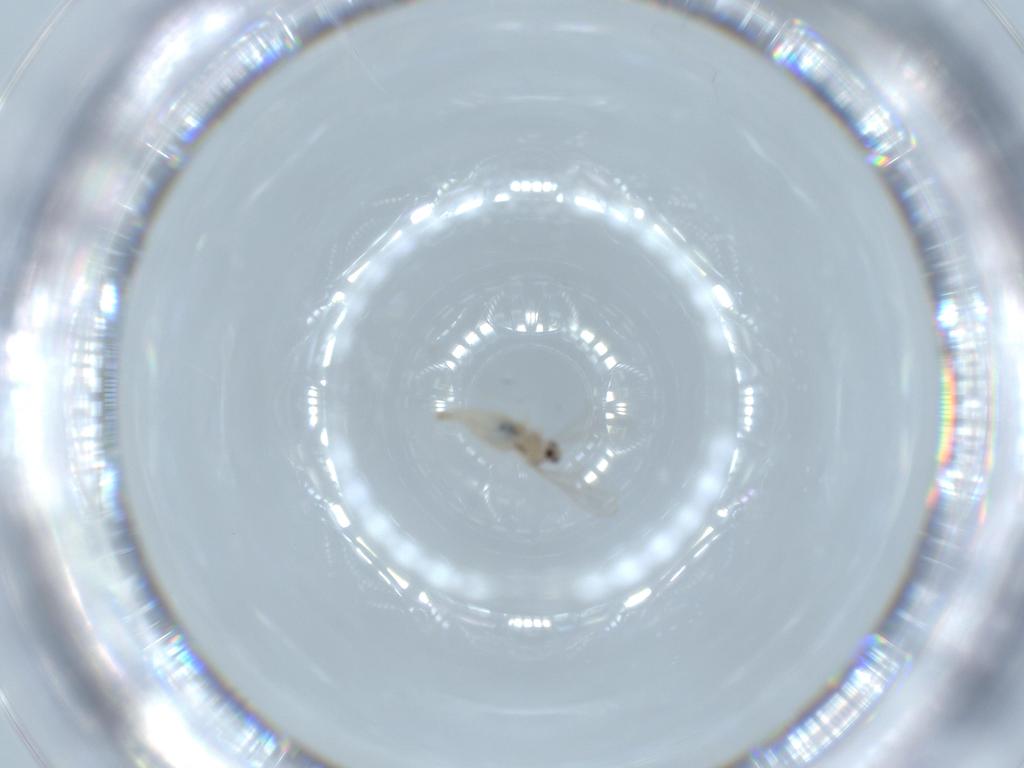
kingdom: Animalia
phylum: Arthropoda
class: Insecta
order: Diptera
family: Cecidomyiidae
